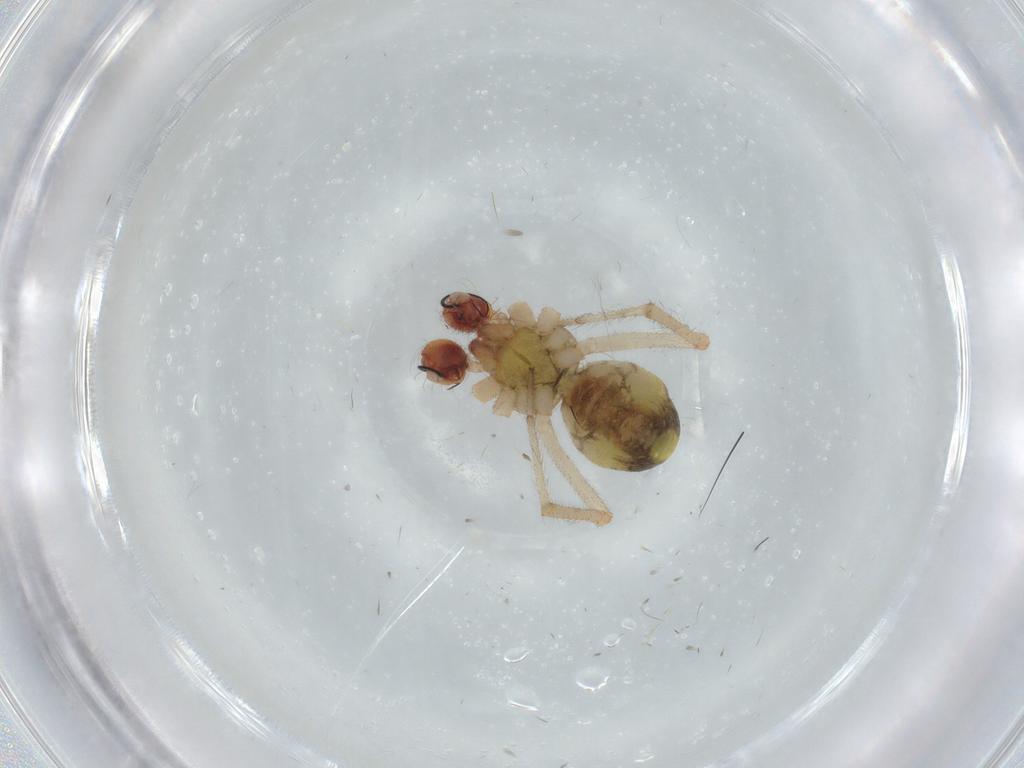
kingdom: Animalia
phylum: Arthropoda
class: Arachnida
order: Araneae
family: Theridiidae
